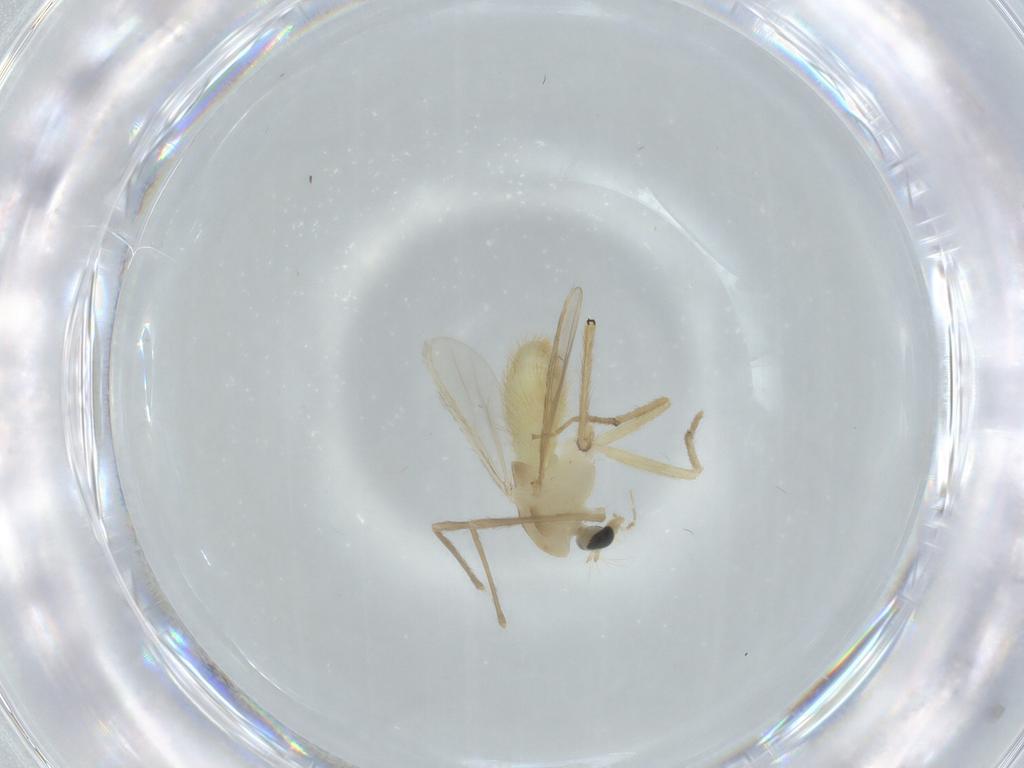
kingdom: Animalia
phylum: Arthropoda
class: Insecta
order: Diptera
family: Chironomidae
